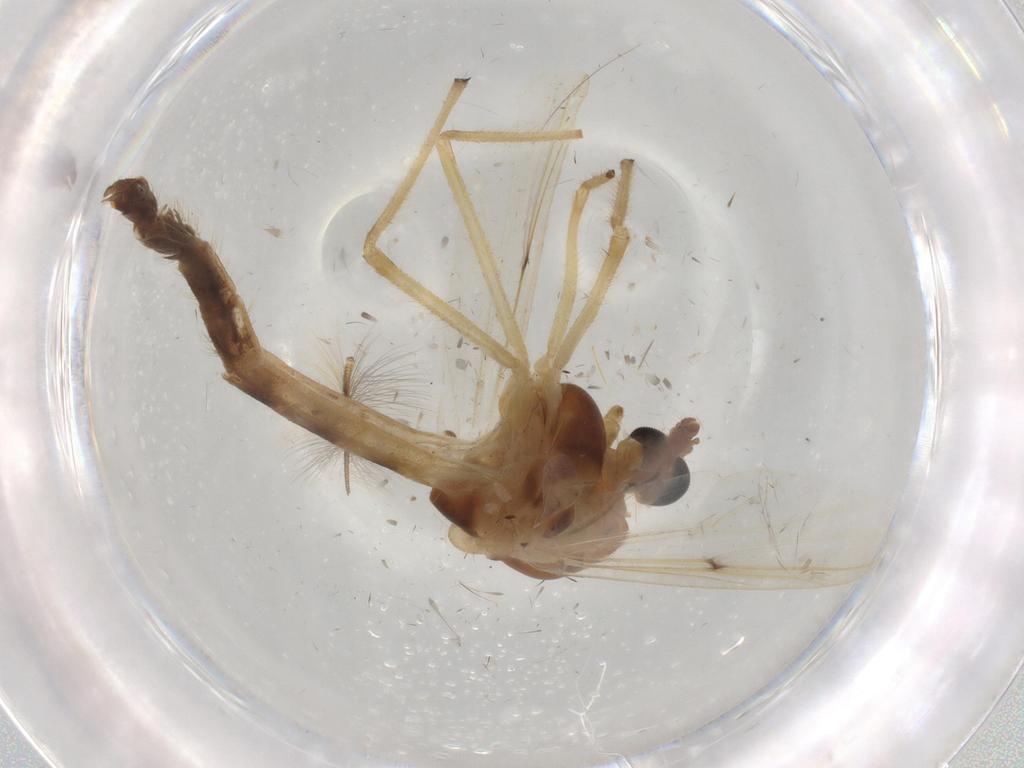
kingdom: Animalia
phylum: Arthropoda
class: Insecta
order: Diptera
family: Chironomidae
